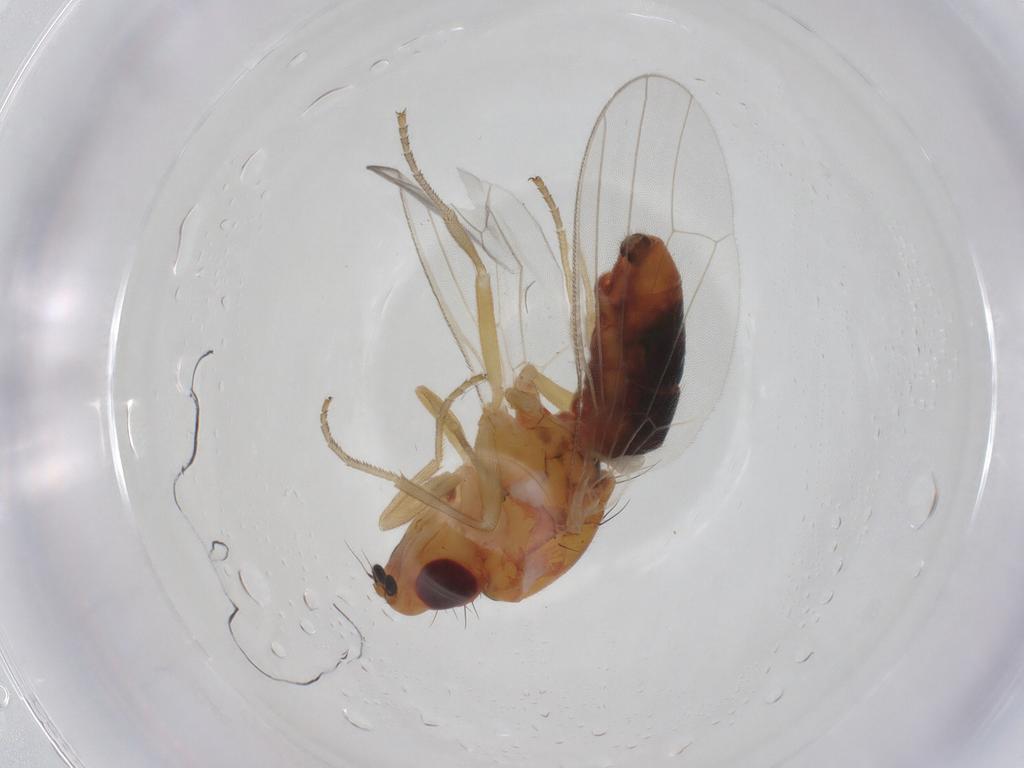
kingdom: Animalia
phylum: Arthropoda
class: Insecta
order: Diptera
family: Psilidae
